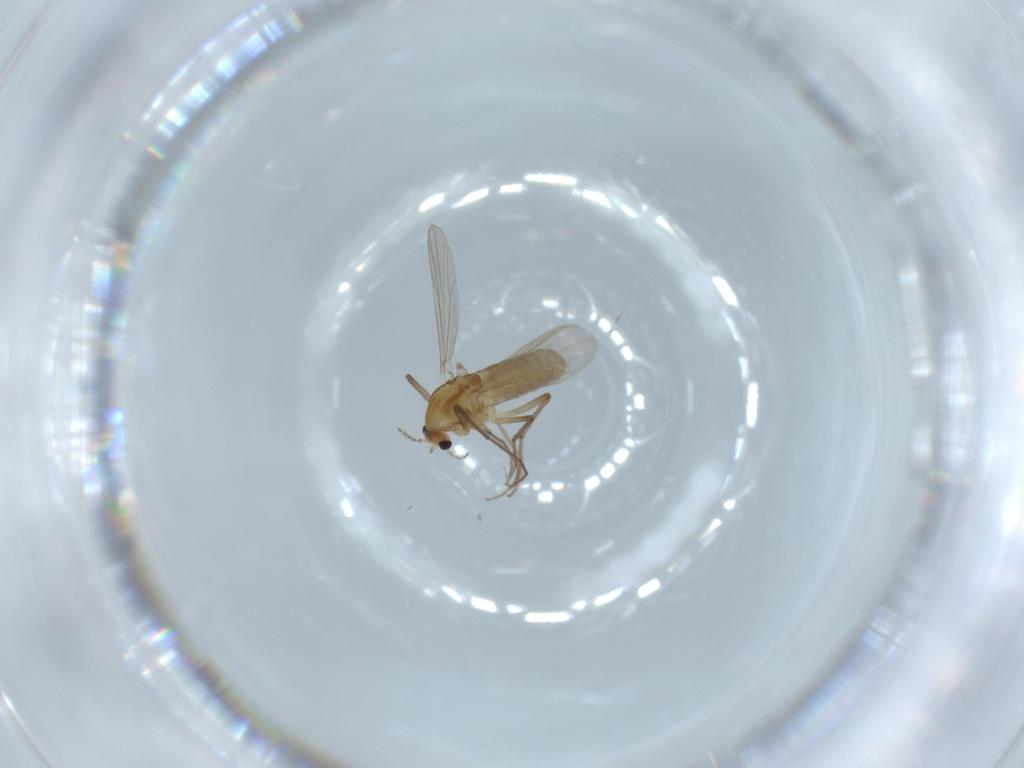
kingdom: Animalia
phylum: Arthropoda
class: Insecta
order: Diptera
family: Chironomidae
